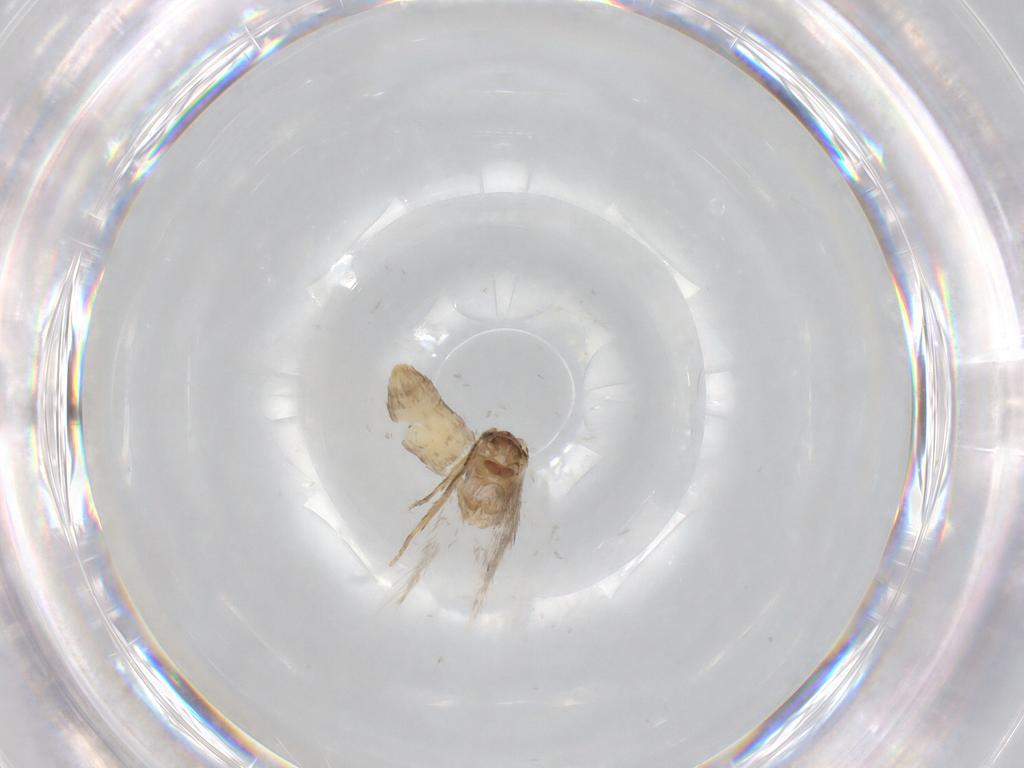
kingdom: Animalia
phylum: Arthropoda
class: Insecta
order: Lepidoptera
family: Nepticulidae
